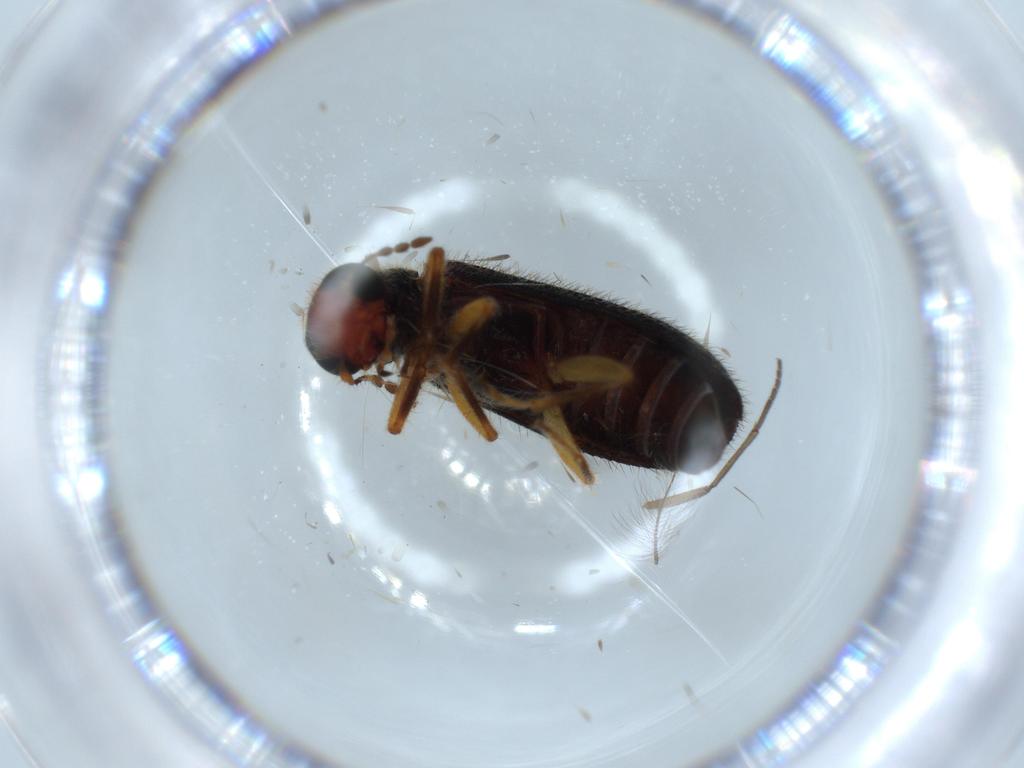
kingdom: Animalia
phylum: Arthropoda
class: Insecta
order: Coleoptera
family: Cleridae
